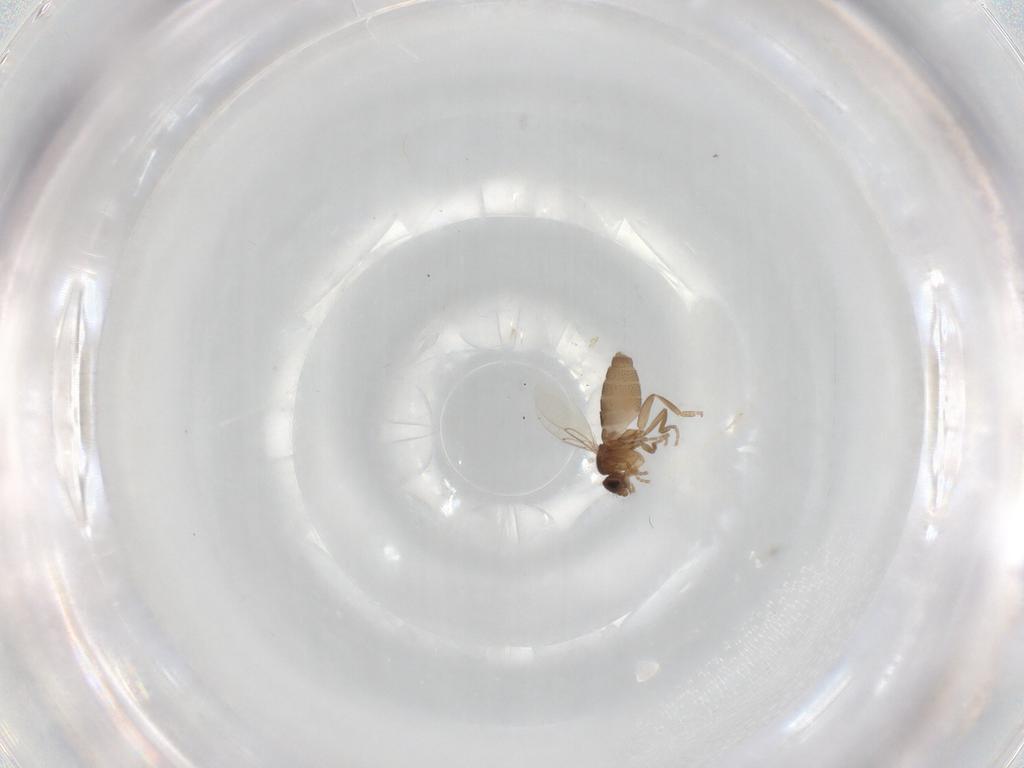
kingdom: Animalia
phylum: Arthropoda
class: Insecta
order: Diptera
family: Phoridae
